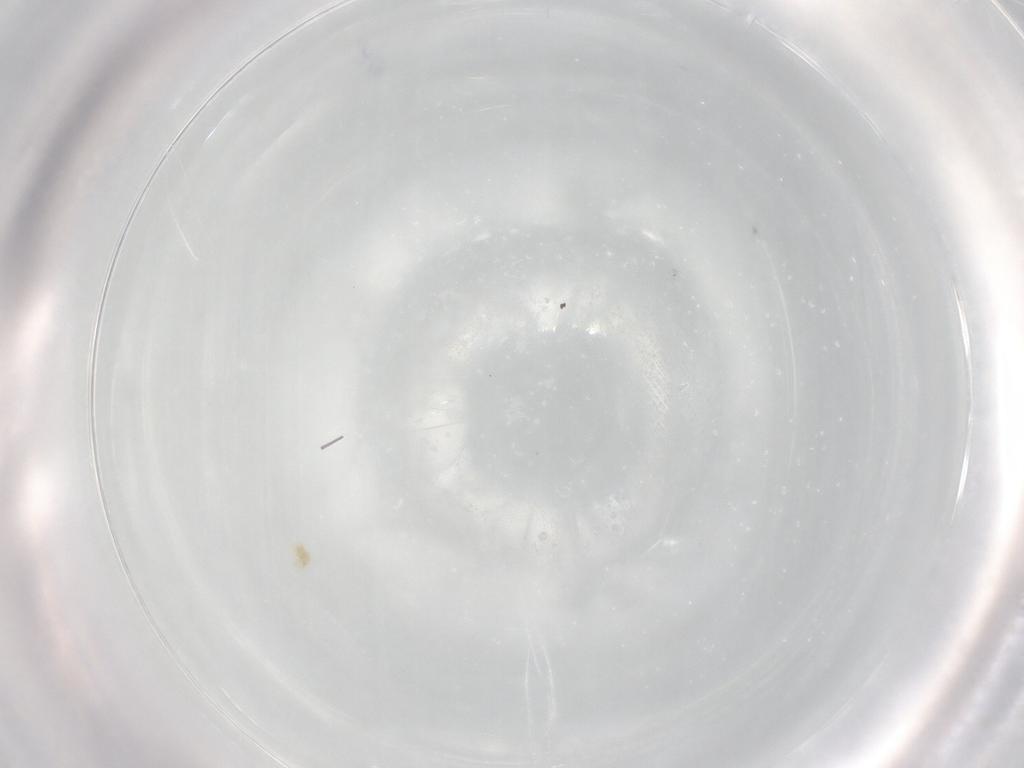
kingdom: Animalia
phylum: Arthropoda
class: Insecta
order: Lepidoptera
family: Tischeriidae
